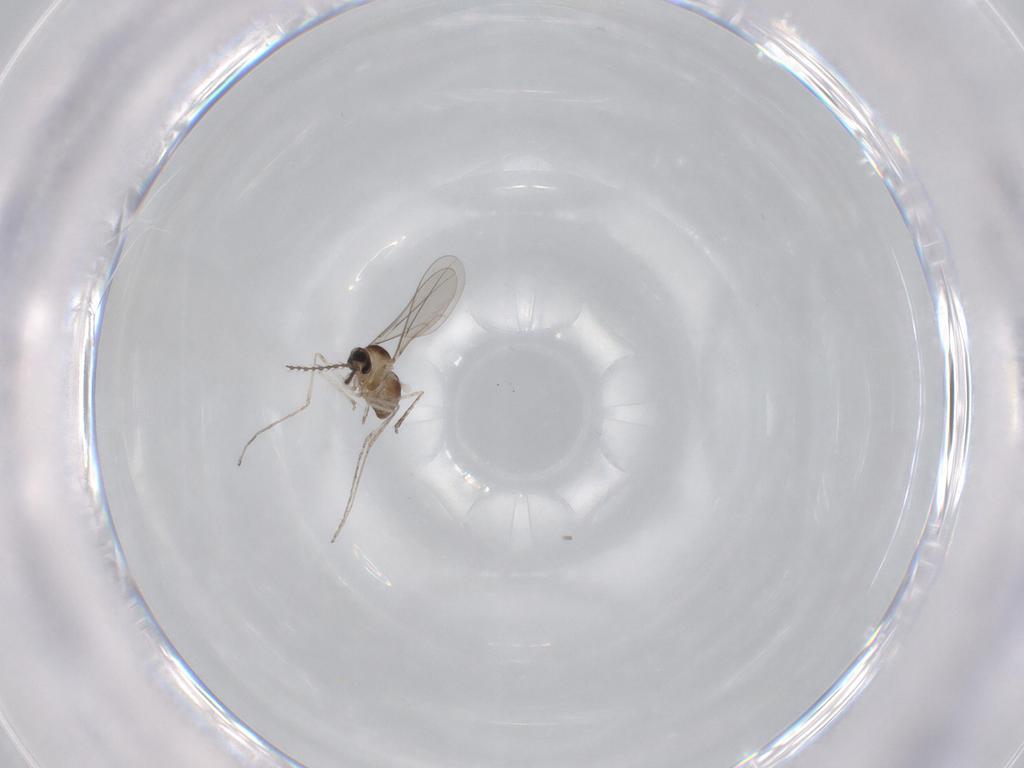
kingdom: Animalia
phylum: Arthropoda
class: Insecta
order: Diptera
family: Cecidomyiidae
